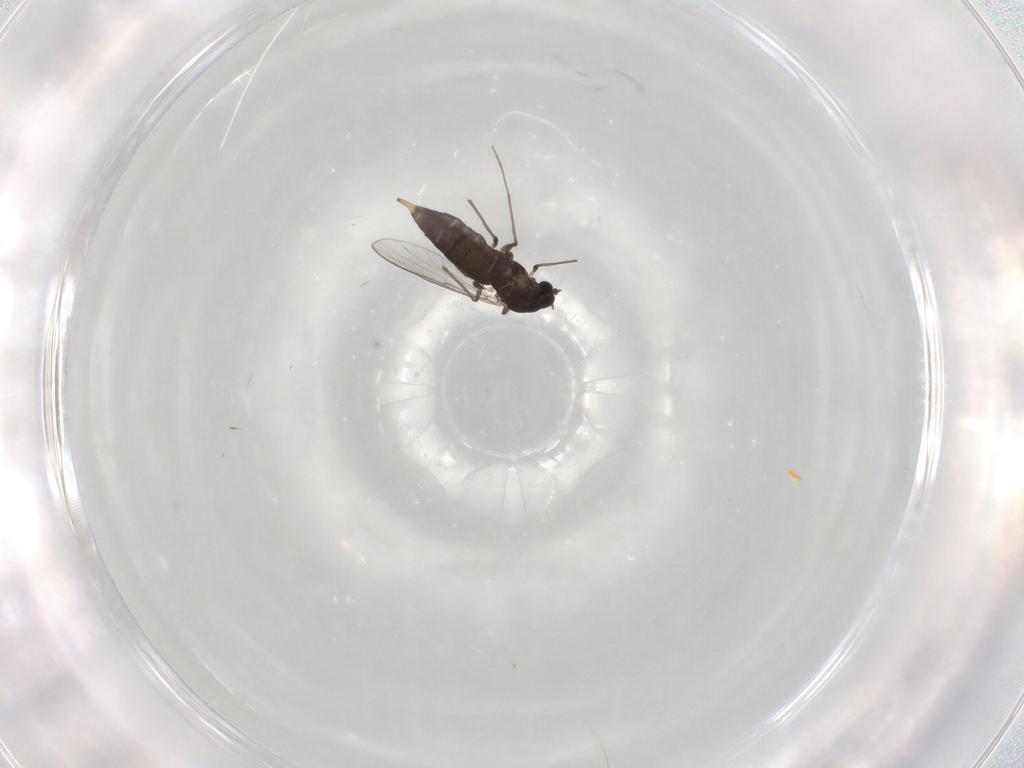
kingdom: Animalia
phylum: Arthropoda
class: Insecta
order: Diptera
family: Chironomidae
